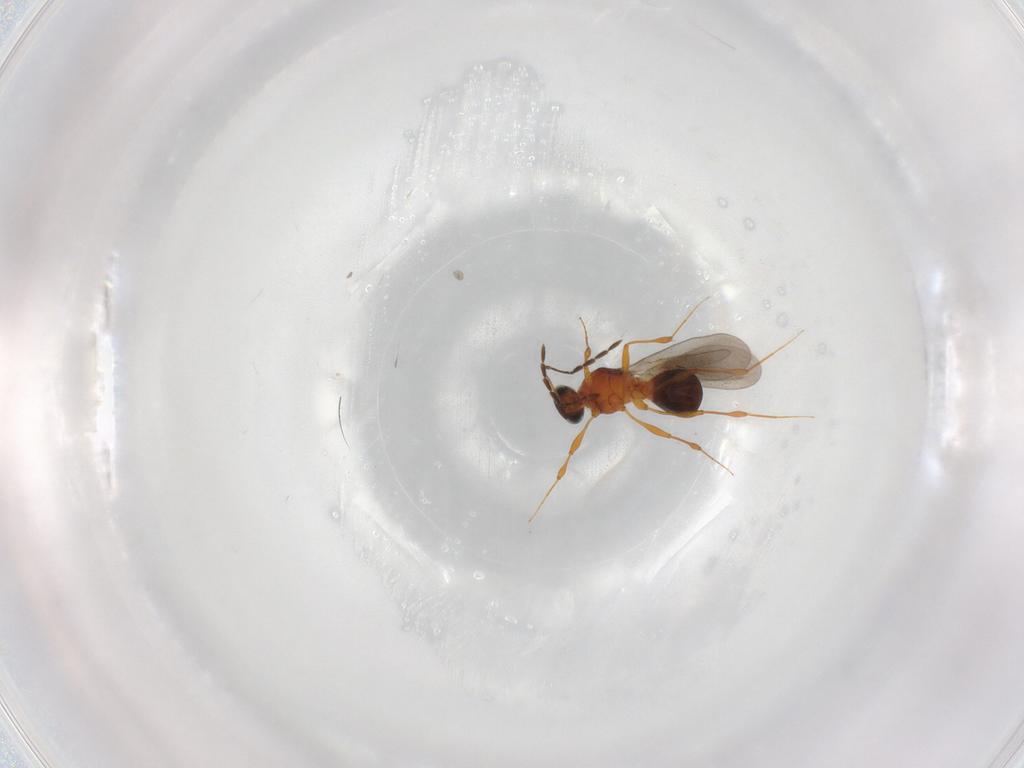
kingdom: Animalia
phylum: Arthropoda
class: Insecta
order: Hymenoptera
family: Platygastridae
